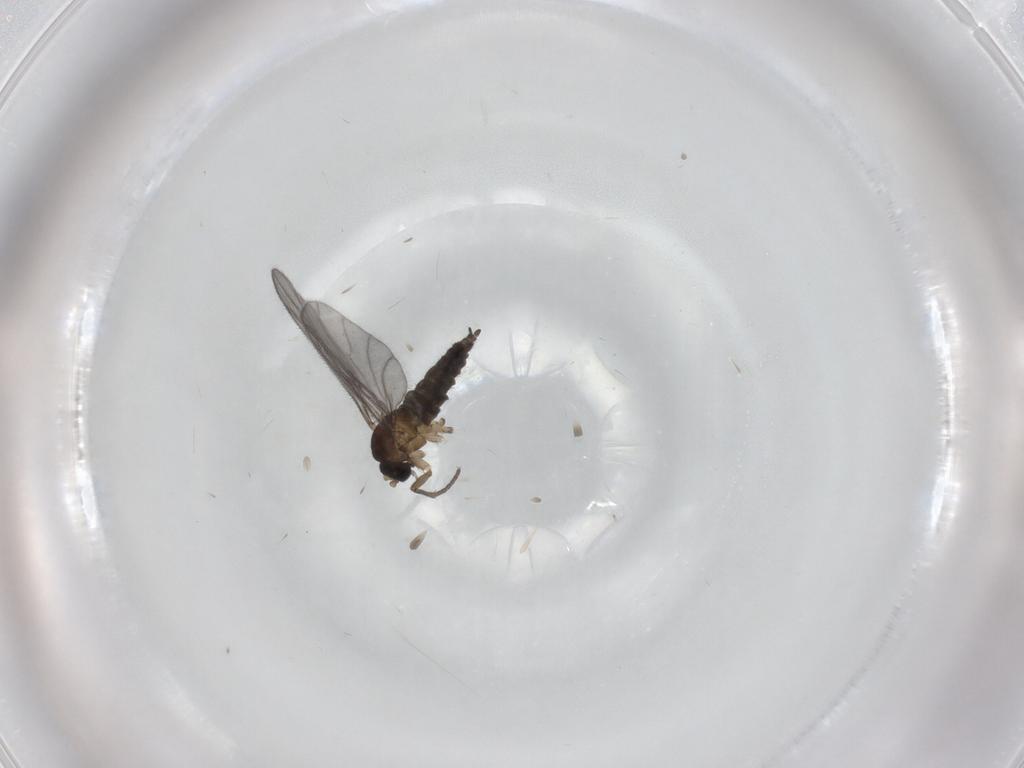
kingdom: Animalia
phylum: Arthropoda
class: Insecta
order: Diptera
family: Sciaridae
